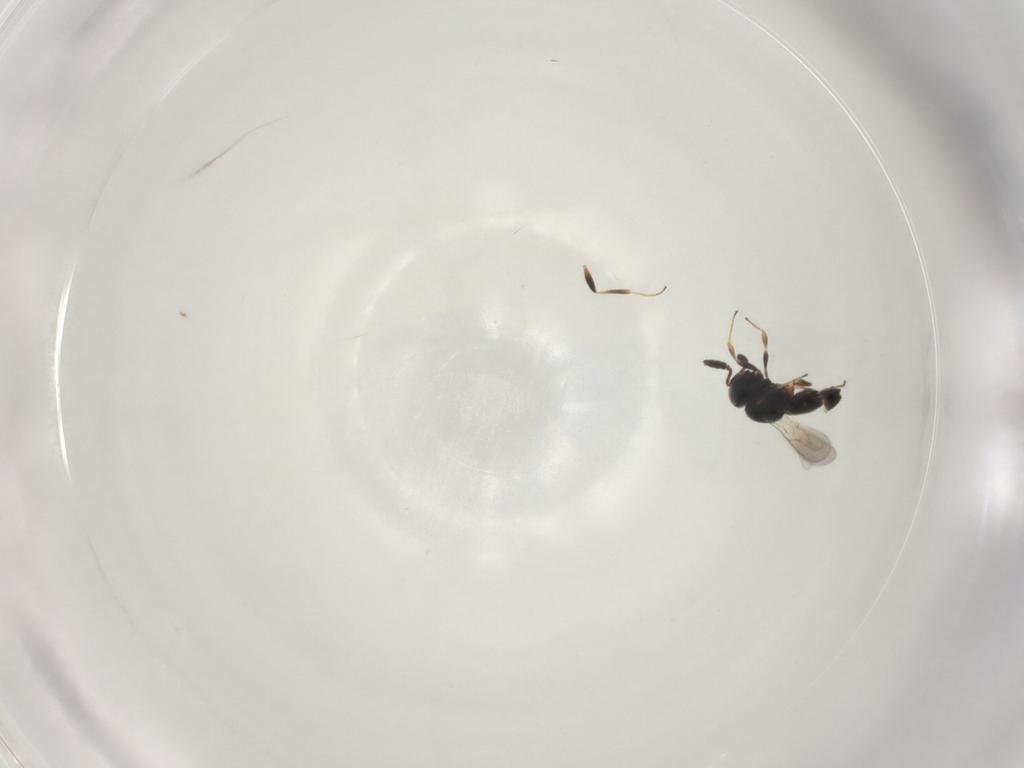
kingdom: Animalia
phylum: Arthropoda
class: Insecta
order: Hymenoptera
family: Scelionidae
